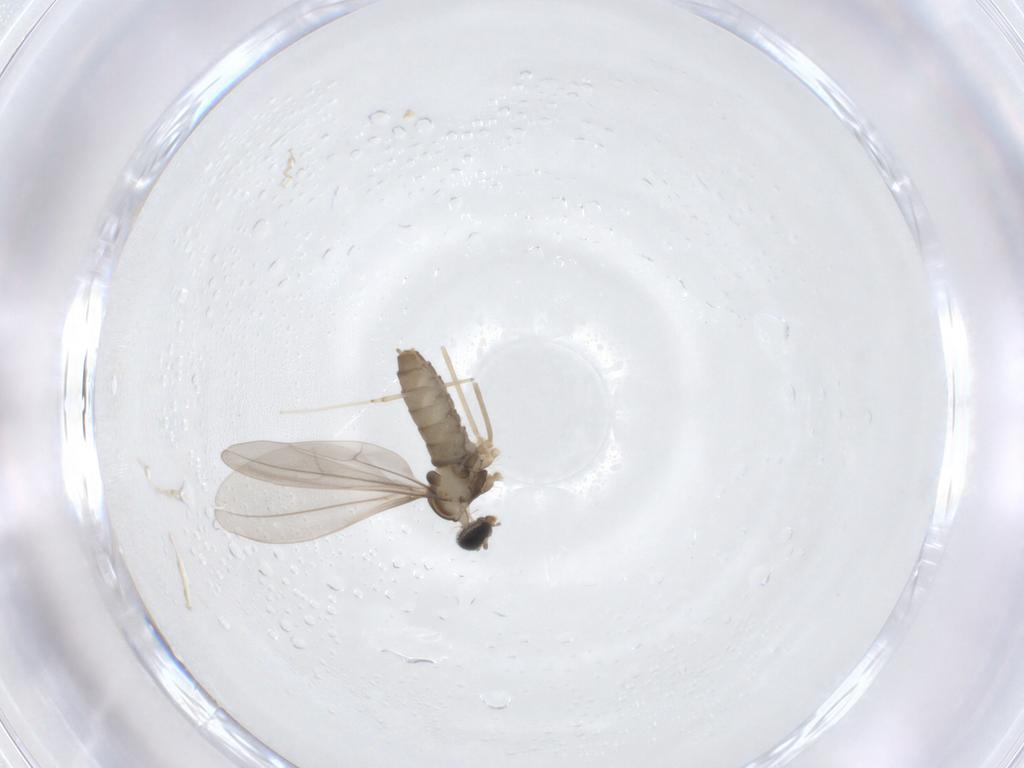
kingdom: Animalia
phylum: Arthropoda
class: Insecta
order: Diptera
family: Cecidomyiidae
